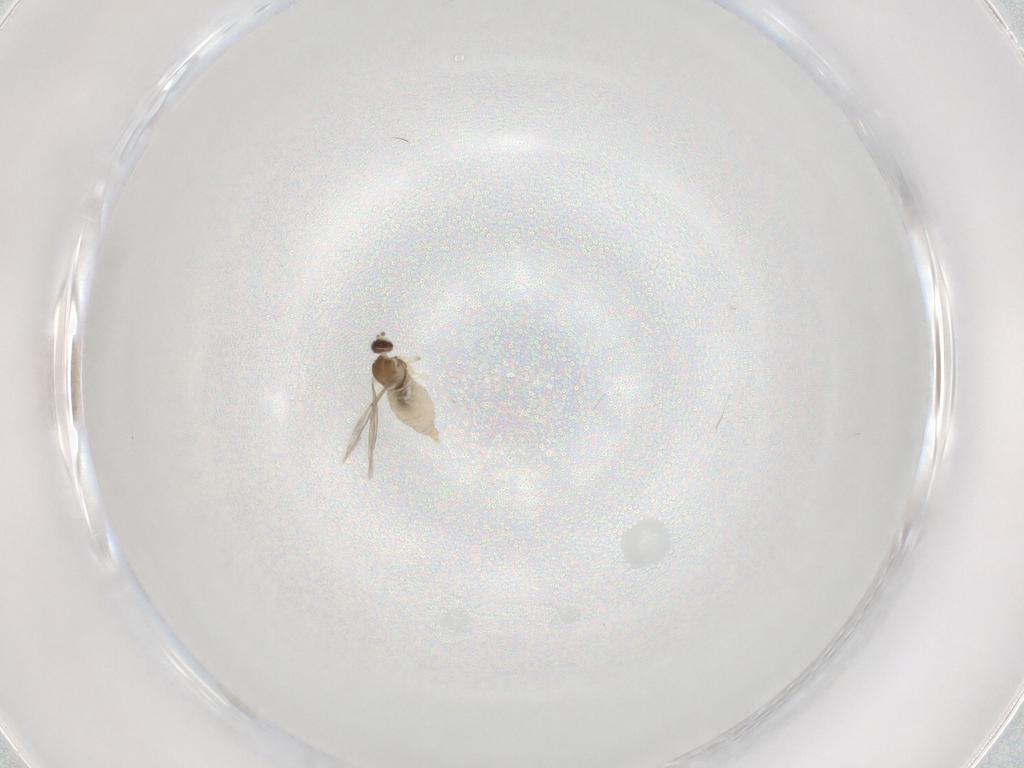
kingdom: Animalia
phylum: Arthropoda
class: Insecta
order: Diptera
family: Cecidomyiidae
